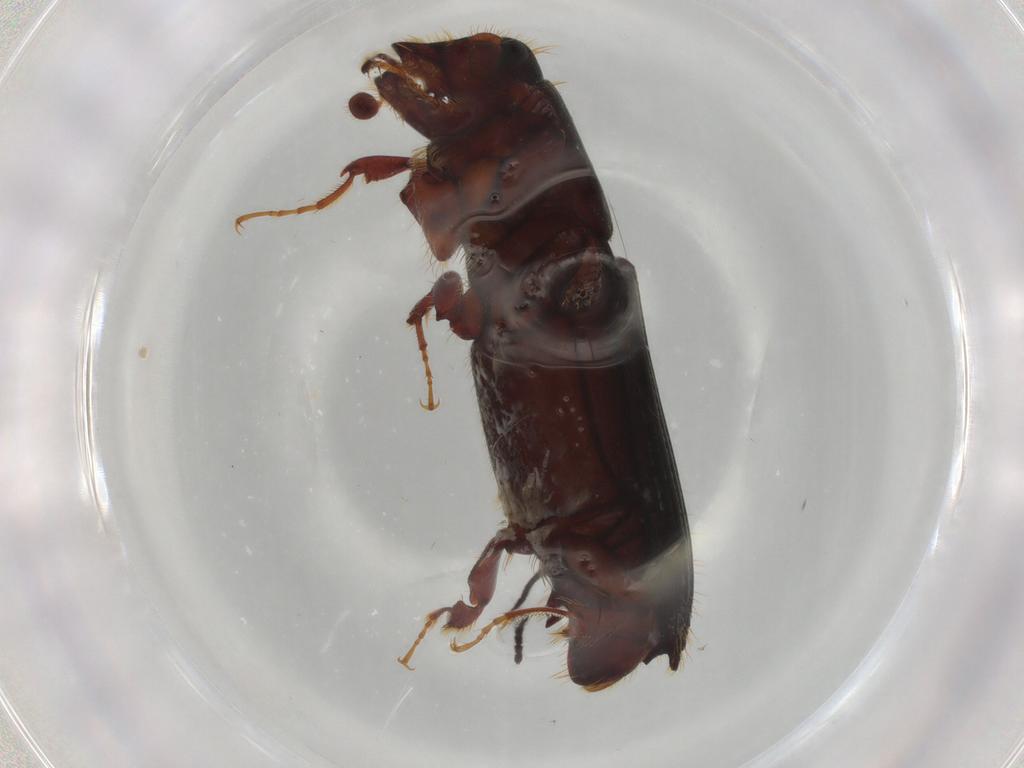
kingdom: Animalia
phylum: Arthropoda
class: Insecta
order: Coleoptera
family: Curculionidae
